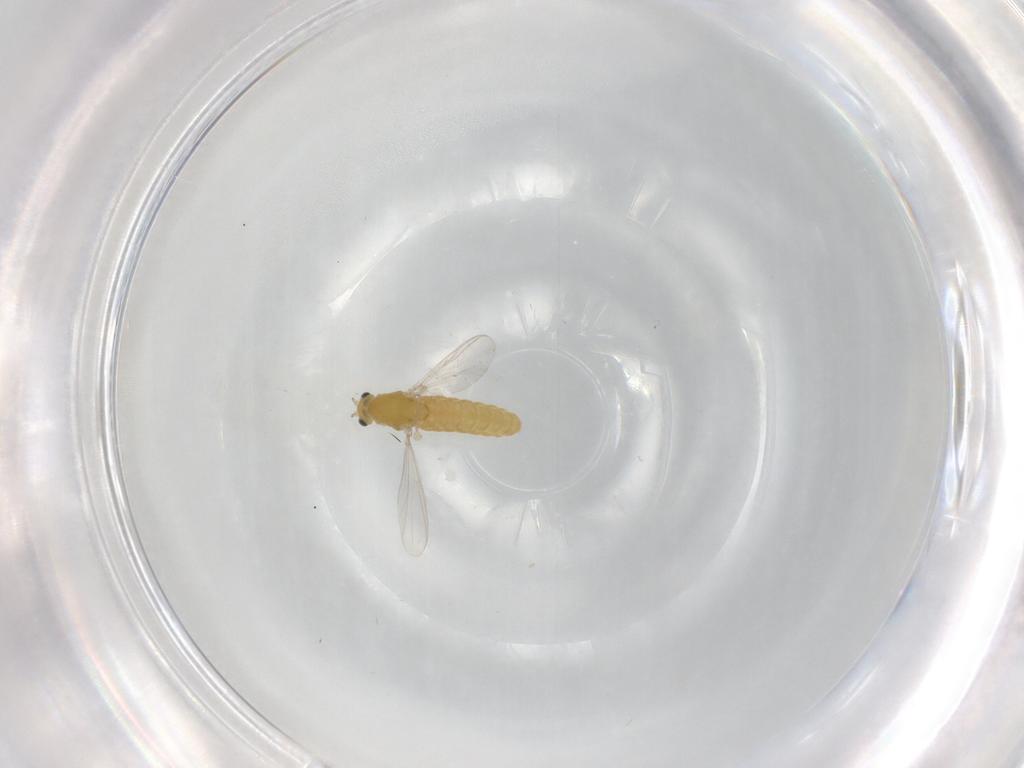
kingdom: Animalia
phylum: Arthropoda
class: Insecta
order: Diptera
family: Chironomidae
